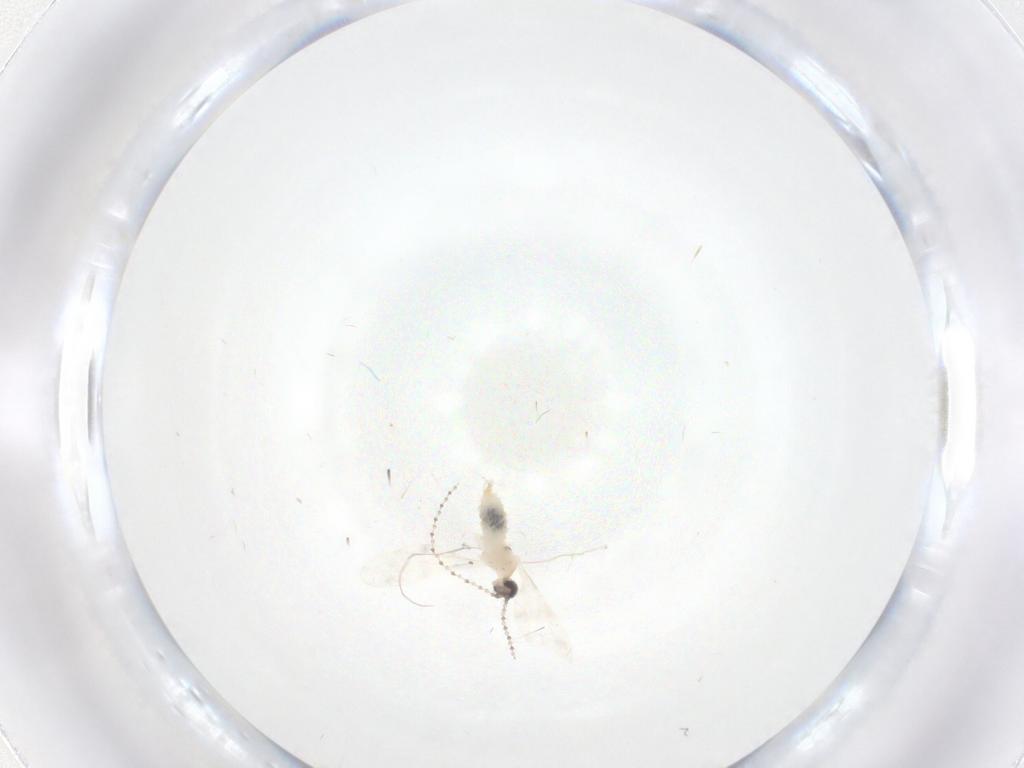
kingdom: Animalia
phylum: Arthropoda
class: Insecta
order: Diptera
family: Cecidomyiidae
